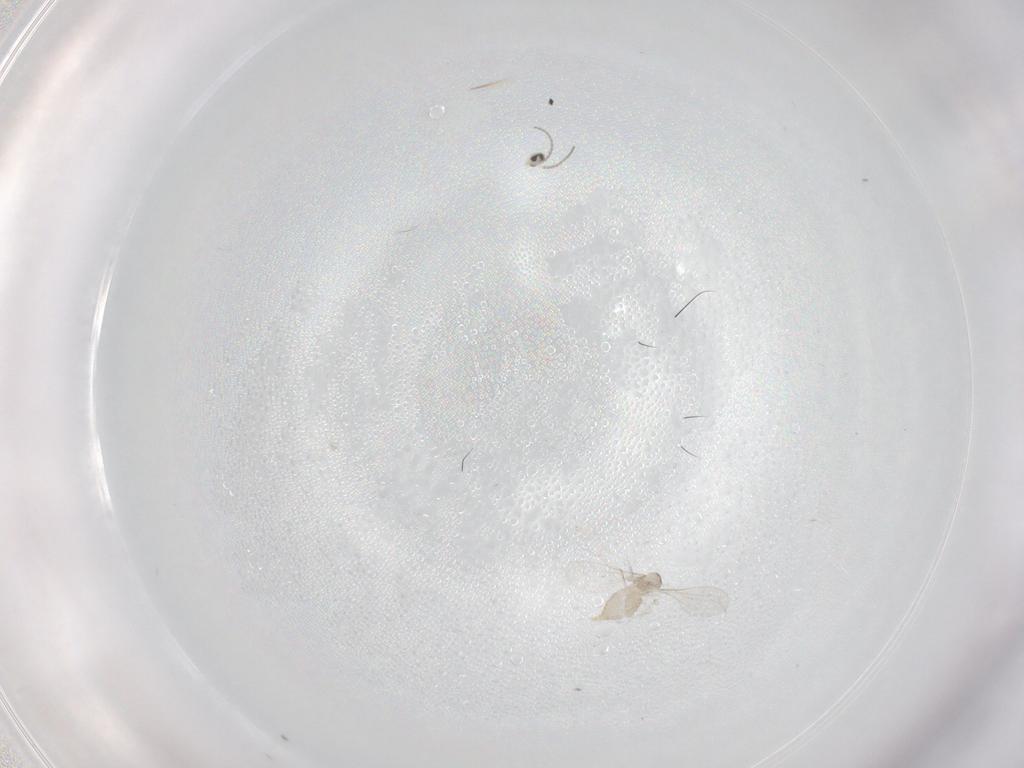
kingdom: Animalia
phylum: Arthropoda
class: Insecta
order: Diptera
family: Cecidomyiidae
